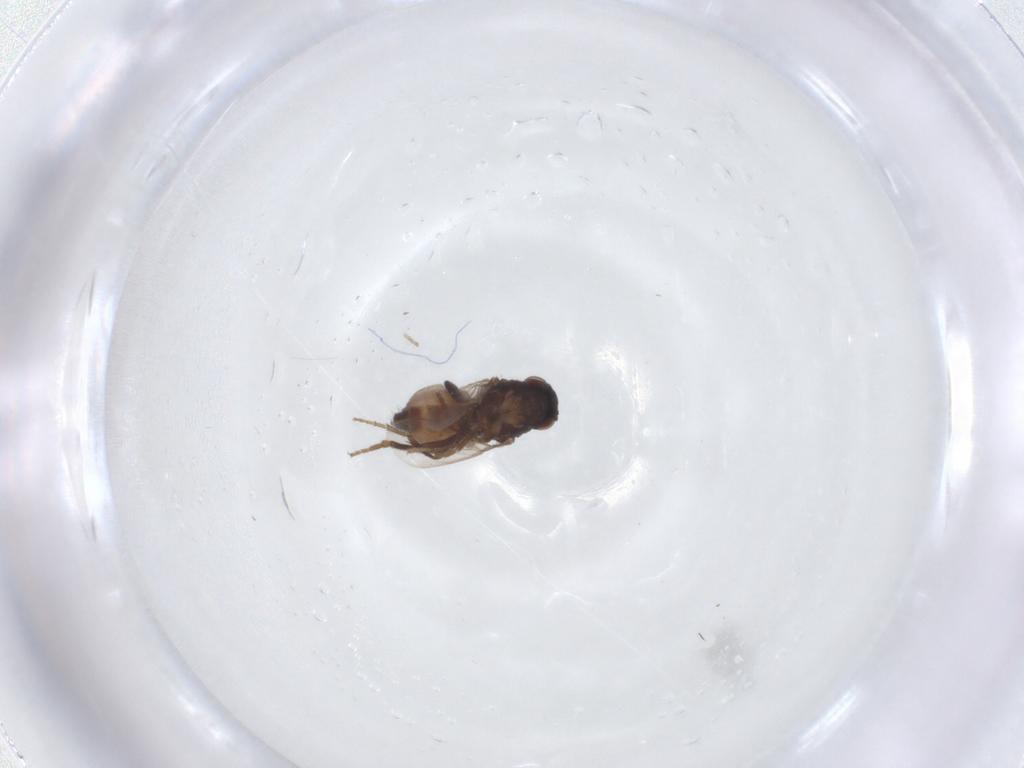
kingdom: Animalia
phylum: Arthropoda
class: Insecta
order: Diptera
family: Sphaeroceridae
